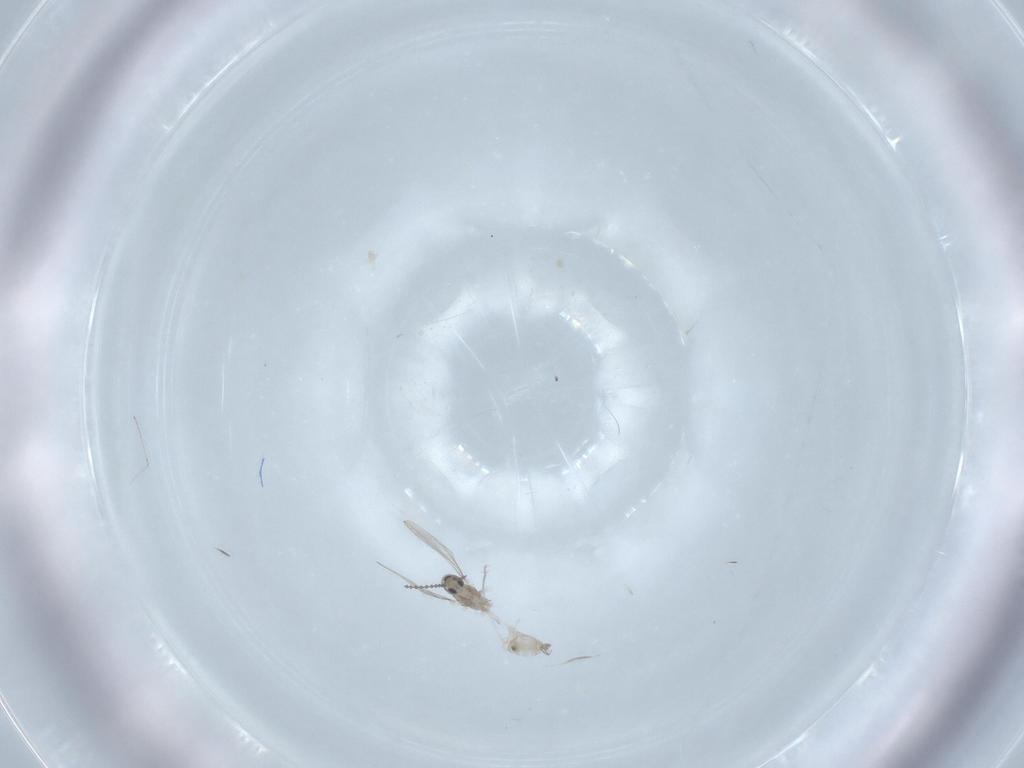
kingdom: Animalia
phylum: Arthropoda
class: Insecta
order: Diptera
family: Cecidomyiidae
